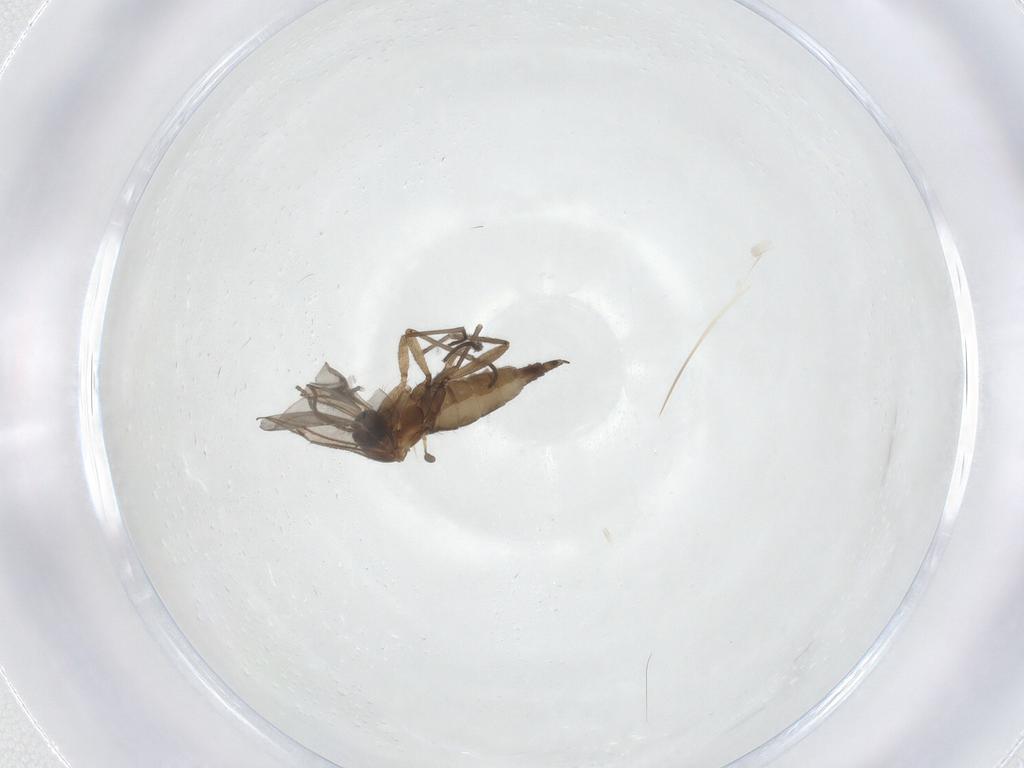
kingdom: Animalia
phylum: Arthropoda
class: Insecta
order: Diptera
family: Sciaridae
